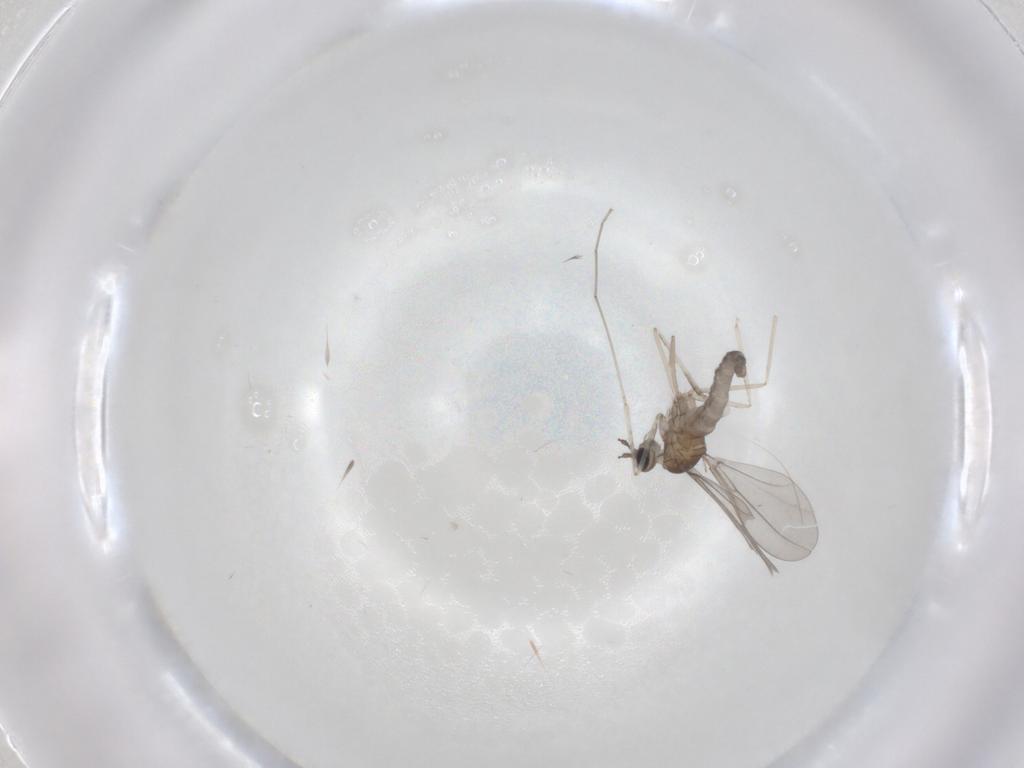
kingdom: Animalia
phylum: Arthropoda
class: Insecta
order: Diptera
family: Cecidomyiidae
